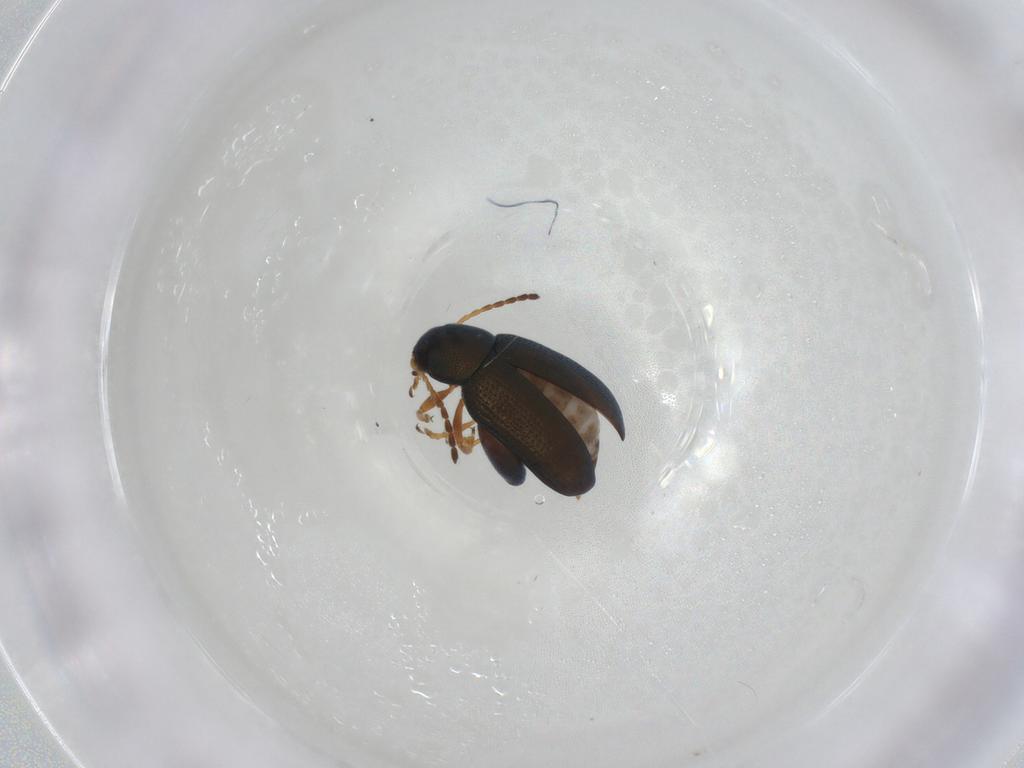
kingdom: Animalia
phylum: Arthropoda
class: Insecta
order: Coleoptera
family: Chrysomelidae
